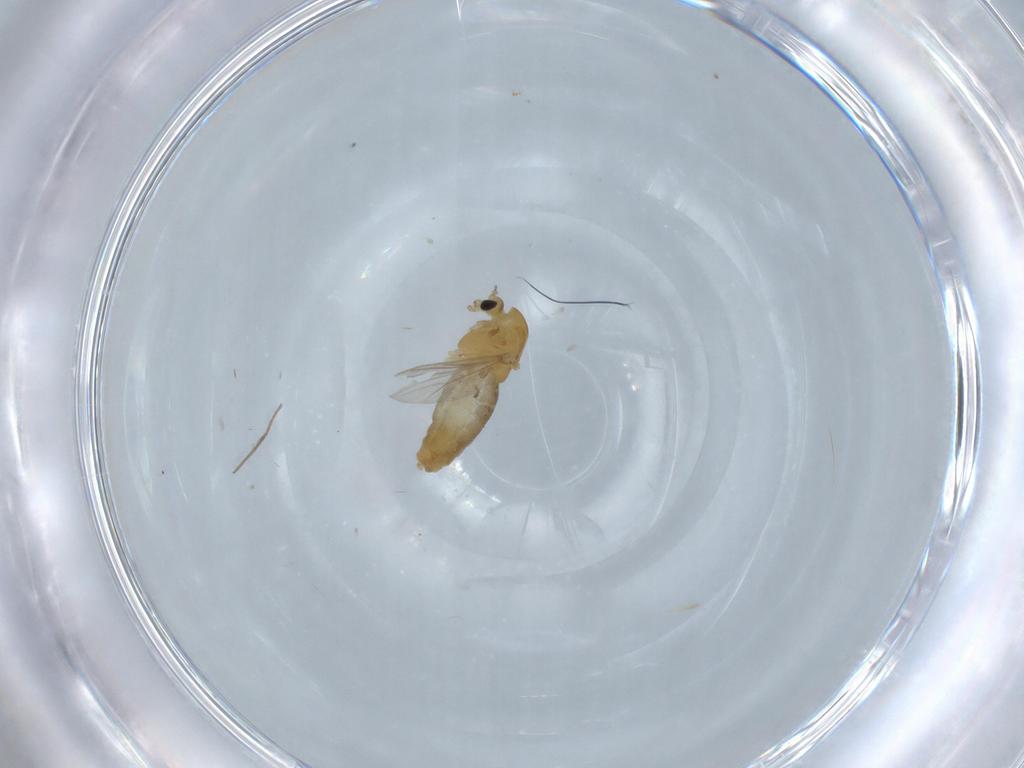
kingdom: Animalia
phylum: Arthropoda
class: Insecta
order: Diptera
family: Chironomidae
